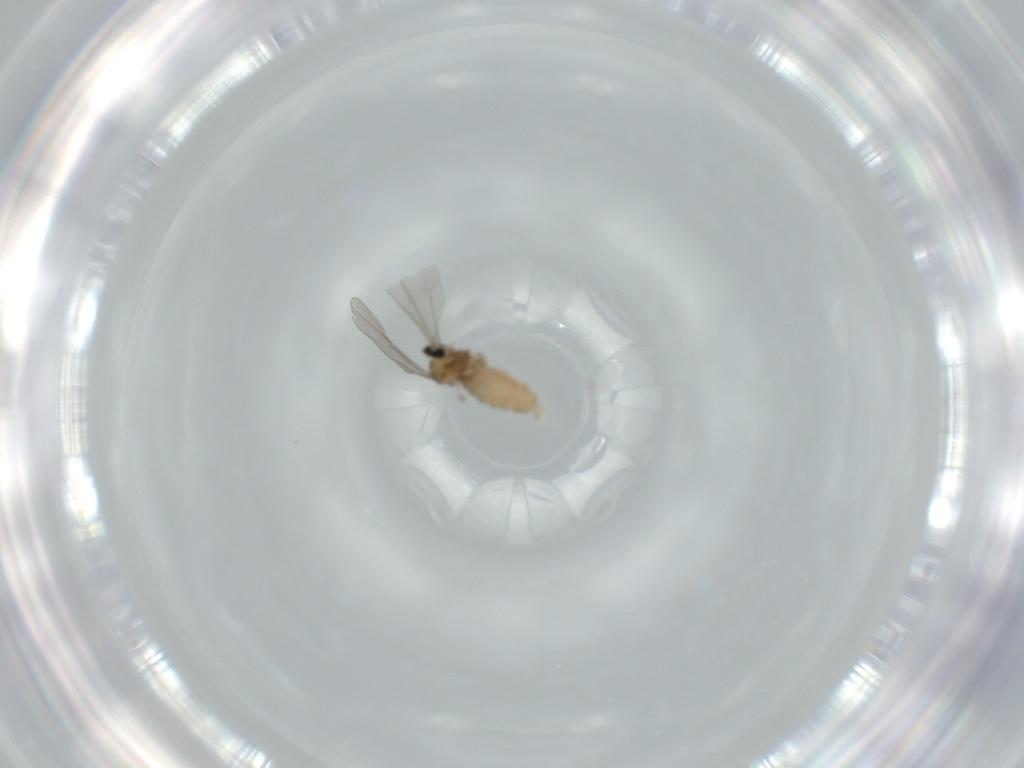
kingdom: Animalia
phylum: Arthropoda
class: Insecta
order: Diptera
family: Cecidomyiidae
